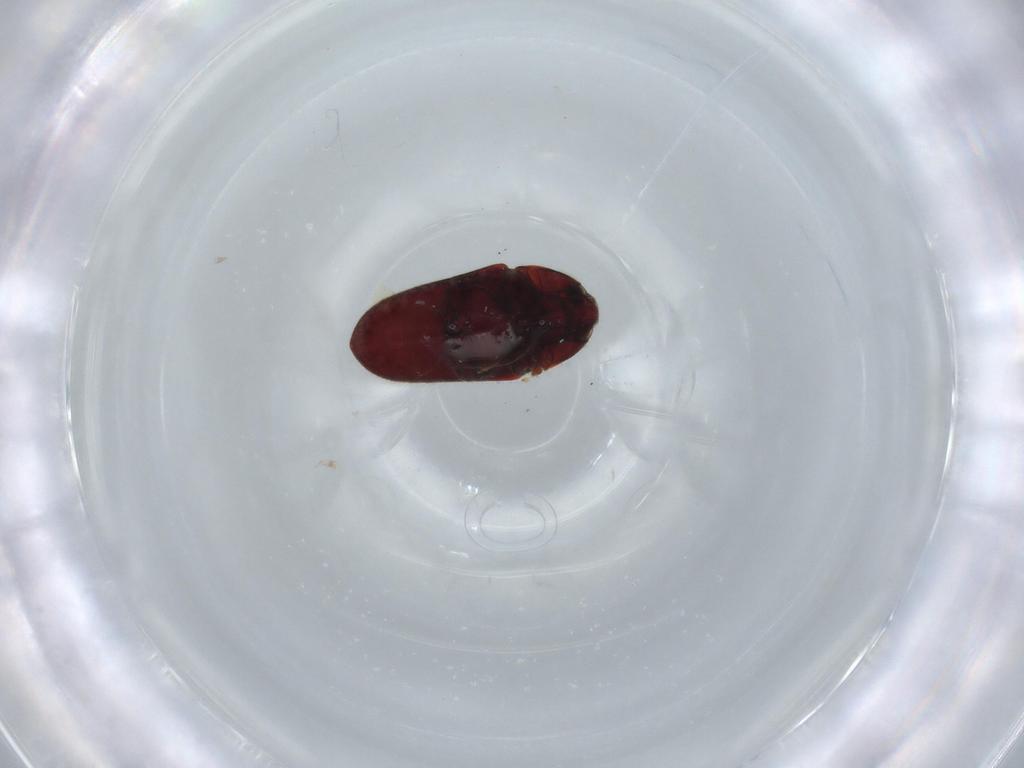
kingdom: Animalia
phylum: Arthropoda
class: Insecta
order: Coleoptera
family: Throscidae
